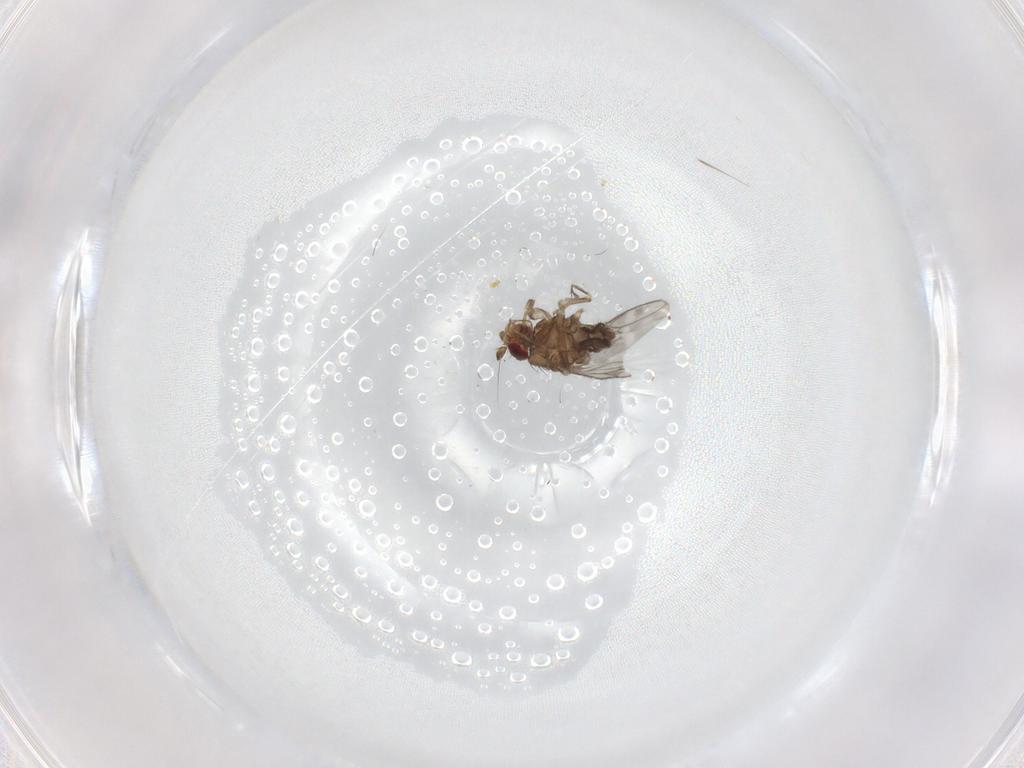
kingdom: Animalia
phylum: Arthropoda
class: Insecta
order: Diptera
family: Sphaeroceridae
